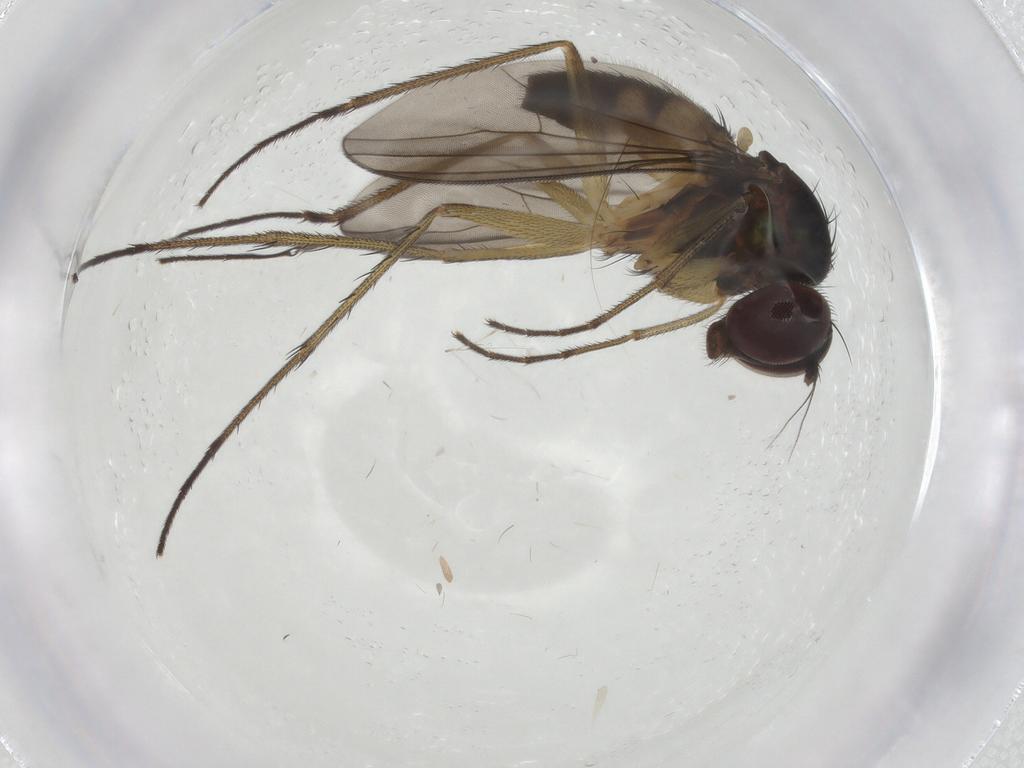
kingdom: Animalia
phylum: Arthropoda
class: Insecta
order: Diptera
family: Dolichopodidae
